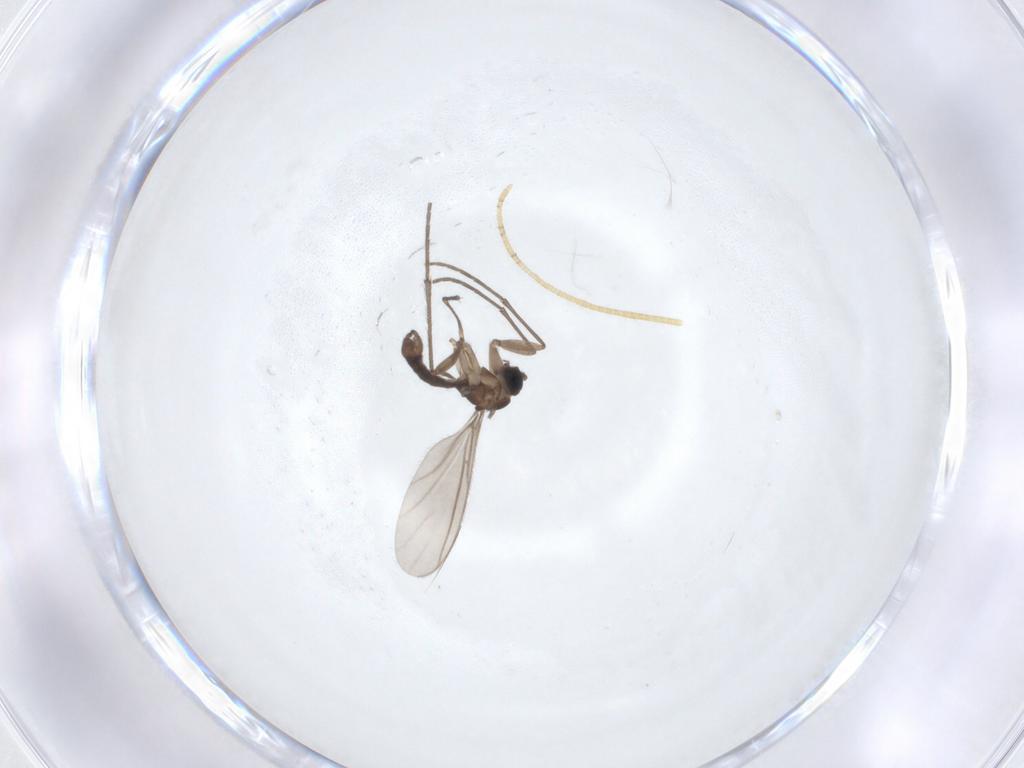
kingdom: Animalia
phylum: Arthropoda
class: Insecta
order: Diptera
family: Sciaridae
